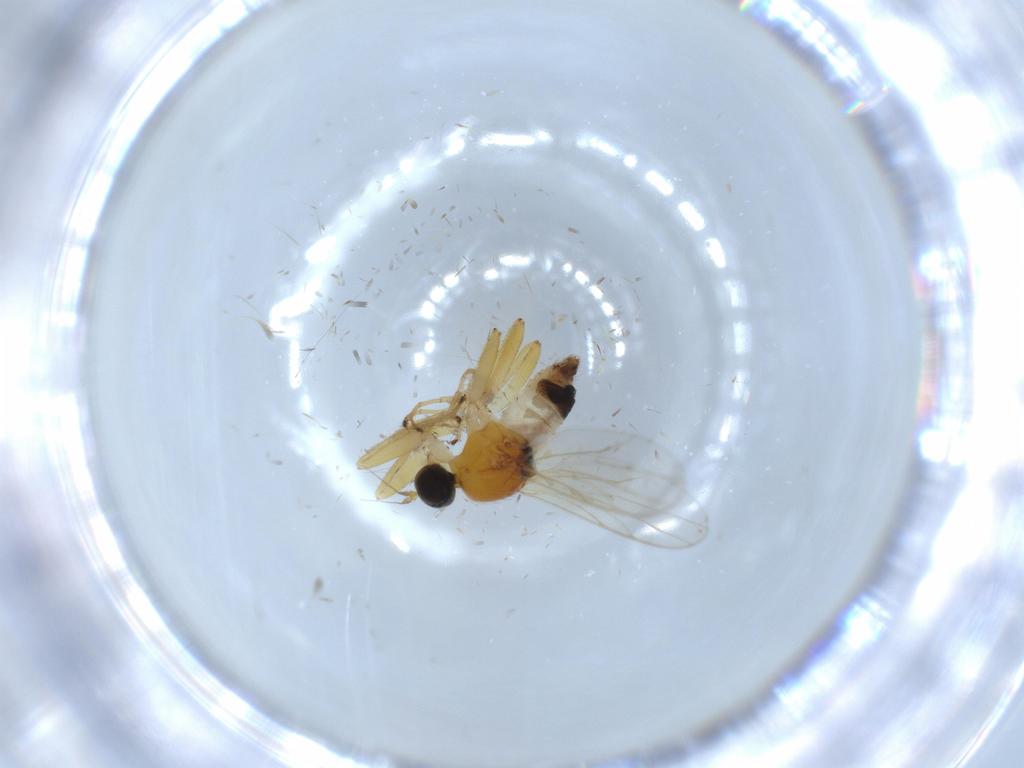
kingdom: Animalia
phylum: Arthropoda
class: Insecta
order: Diptera
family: Hybotidae
